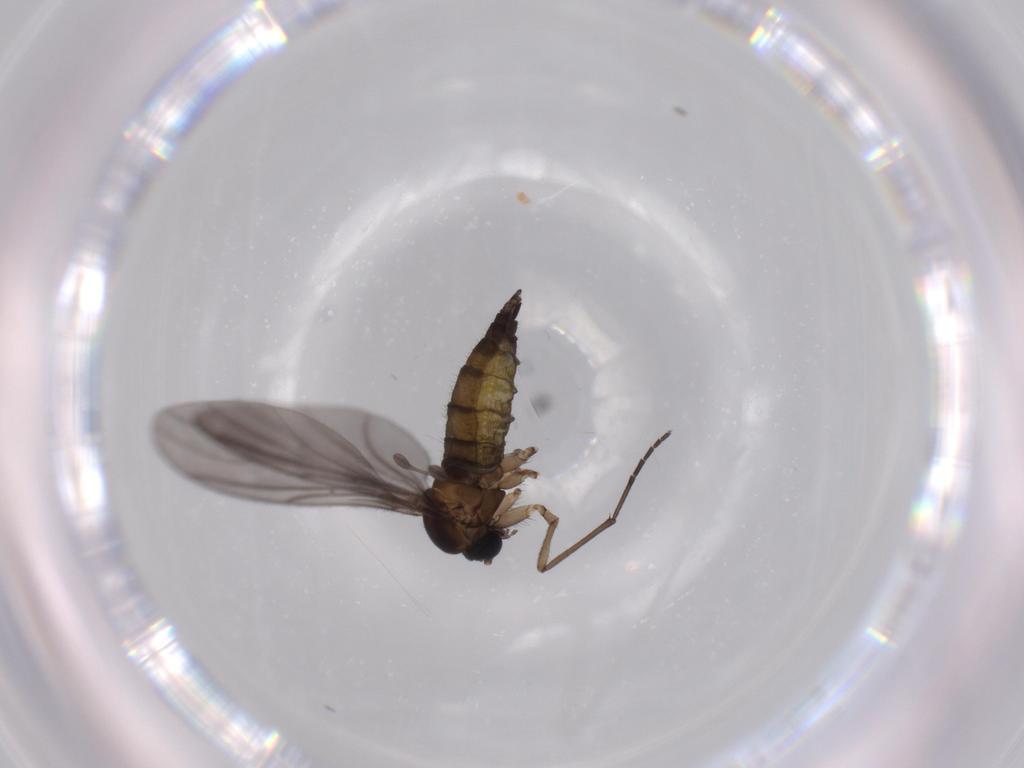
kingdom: Animalia
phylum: Arthropoda
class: Insecta
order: Diptera
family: Sciaridae
